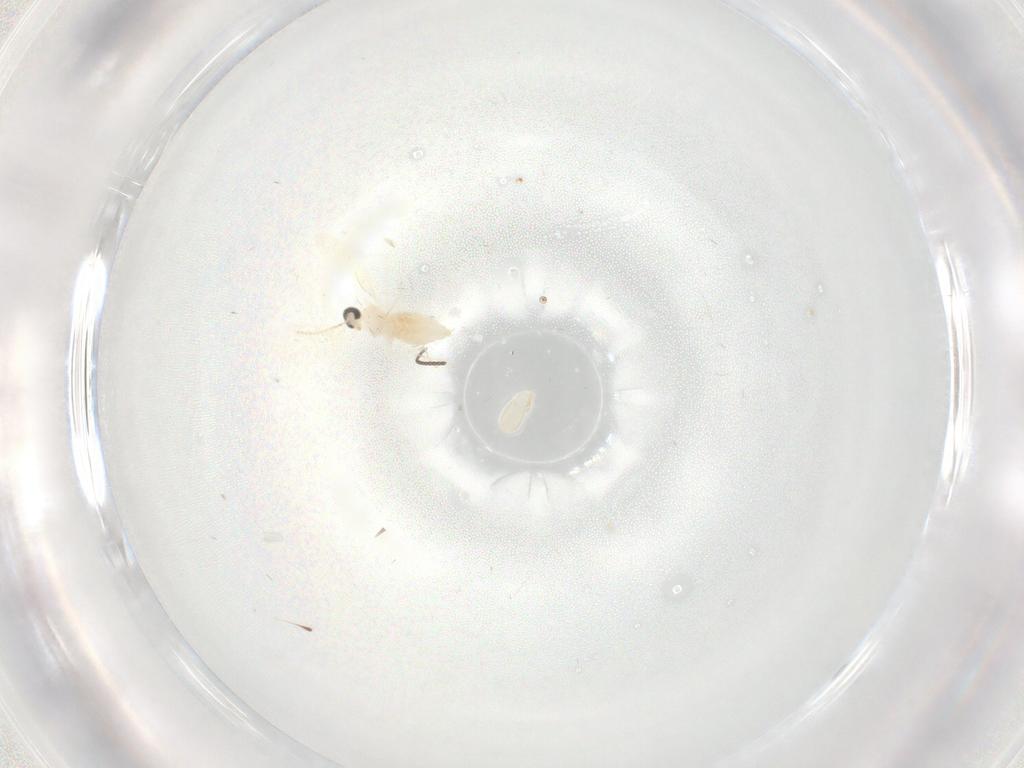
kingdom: Animalia
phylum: Arthropoda
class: Insecta
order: Diptera
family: Cecidomyiidae
